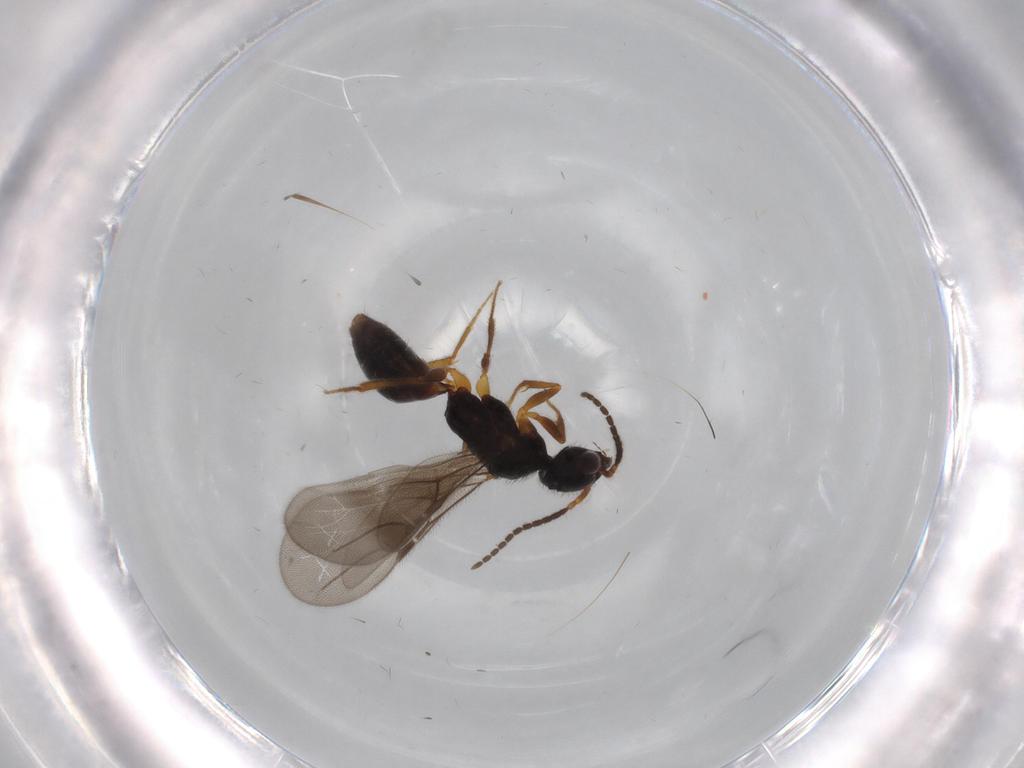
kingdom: Animalia
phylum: Arthropoda
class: Insecta
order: Hymenoptera
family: Bethylidae
